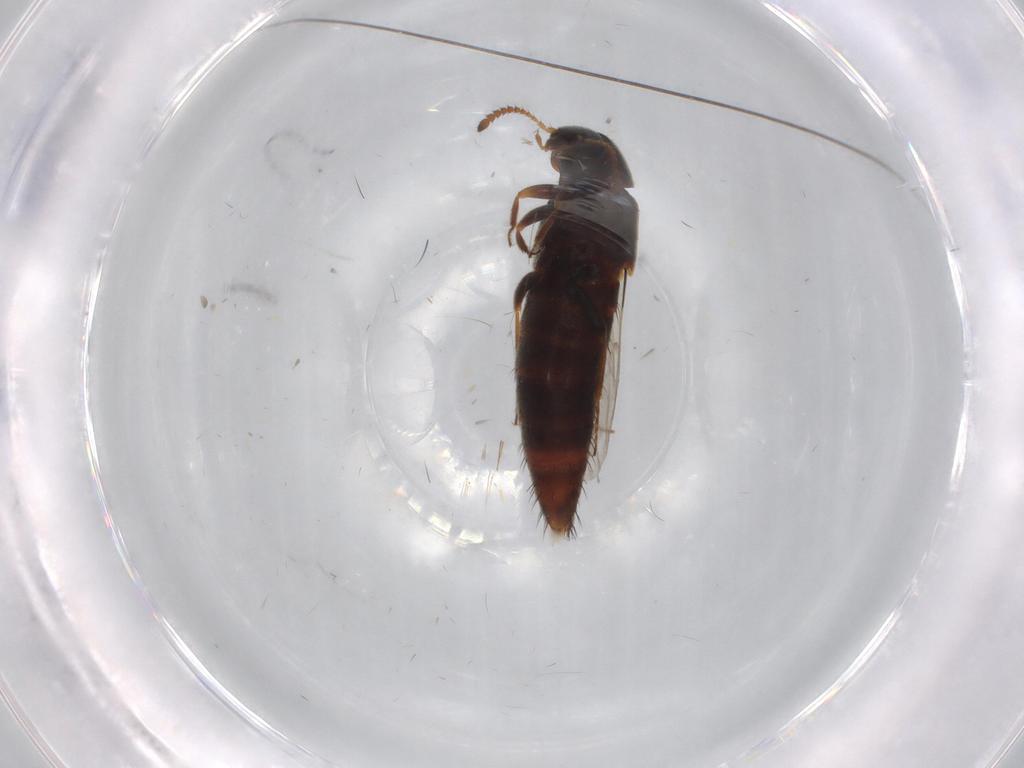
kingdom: Animalia
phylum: Arthropoda
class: Insecta
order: Coleoptera
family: Staphylinidae
